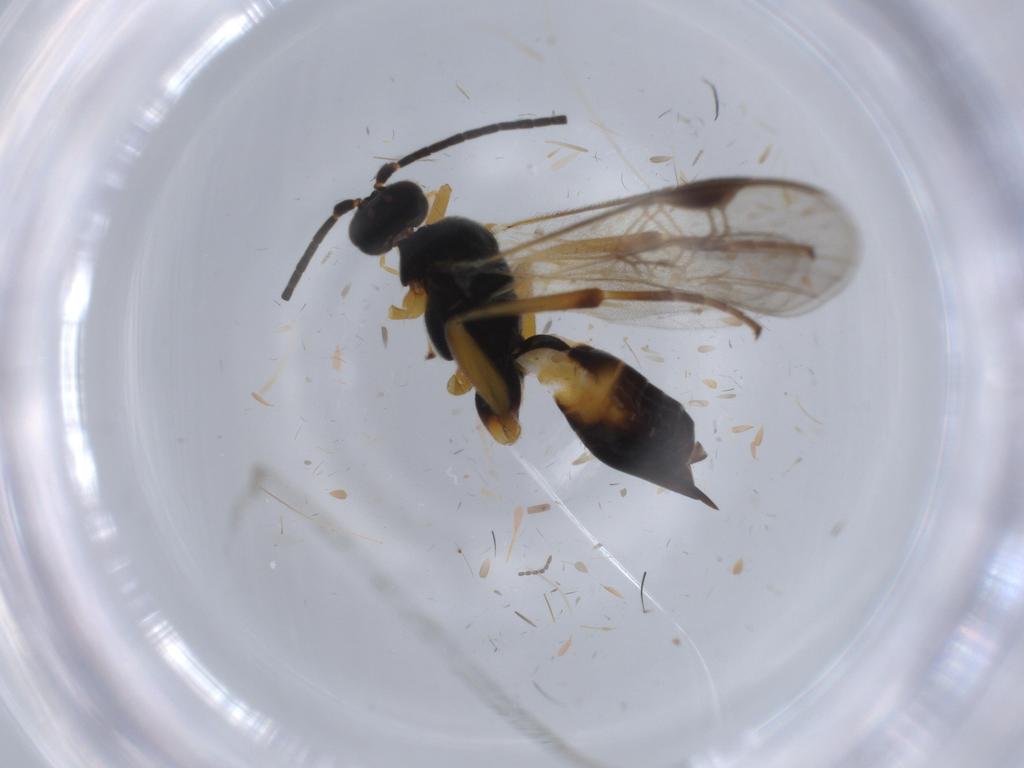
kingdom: Animalia
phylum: Arthropoda
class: Insecta
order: Hymenoptera
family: Braconidae
